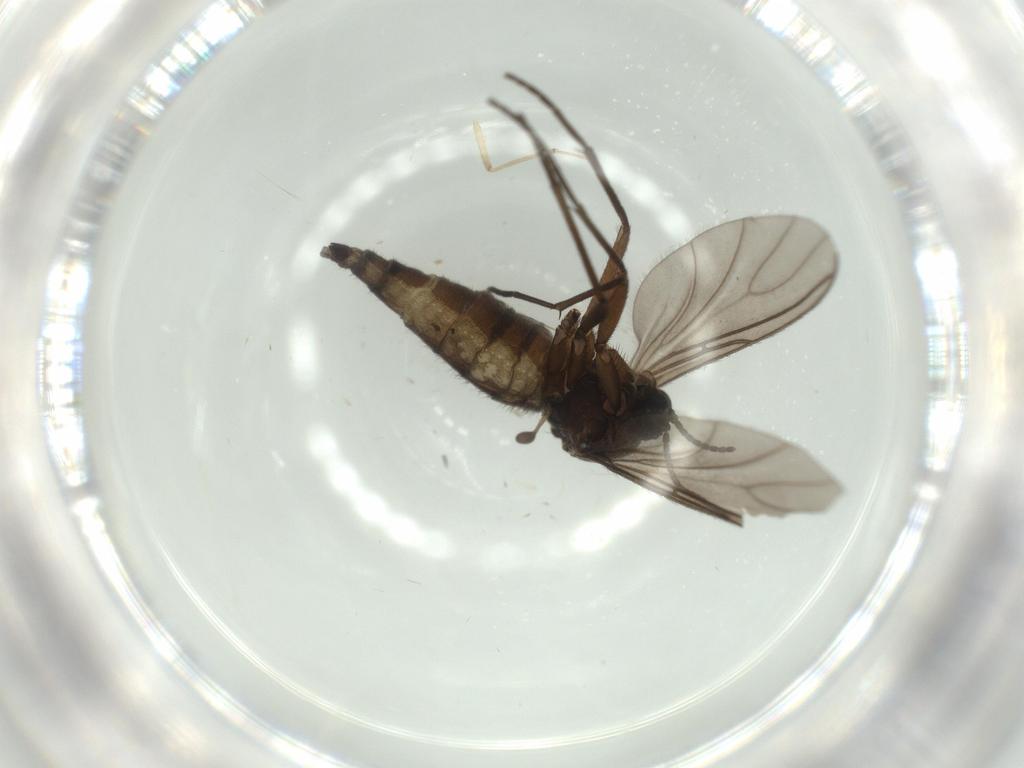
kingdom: Animalia
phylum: Arthropoda
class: Insecta
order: Diptera
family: Sciaridae
